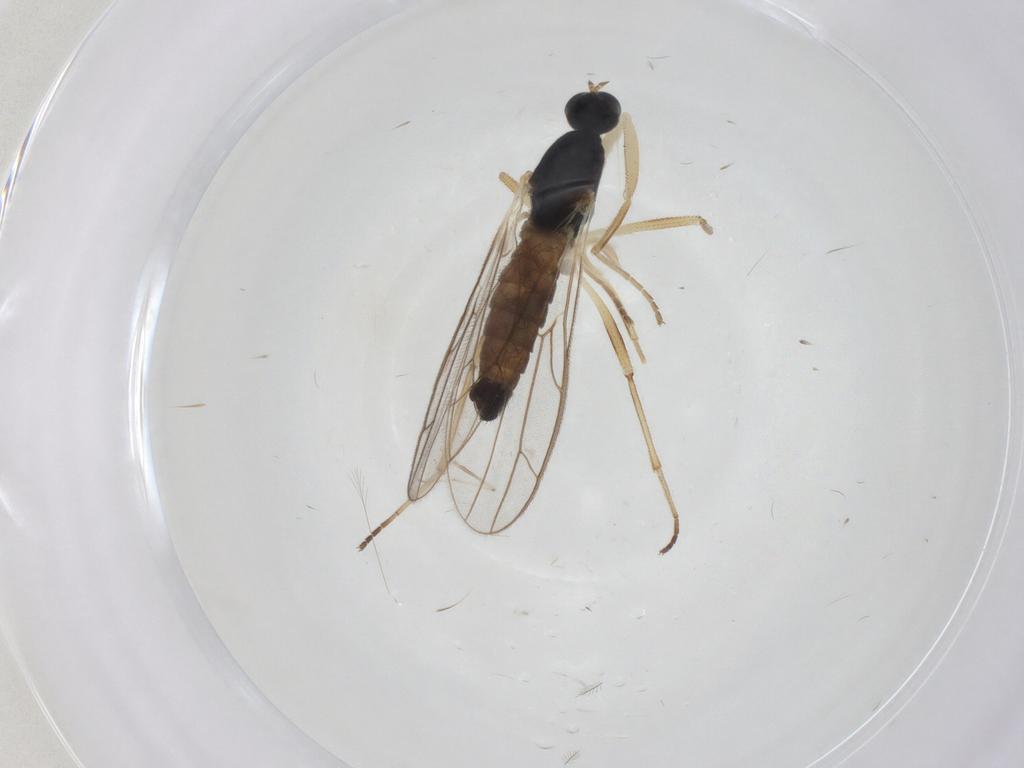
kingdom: Animalia
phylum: Arthropoda
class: Insecta
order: Diptera
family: Empididae
